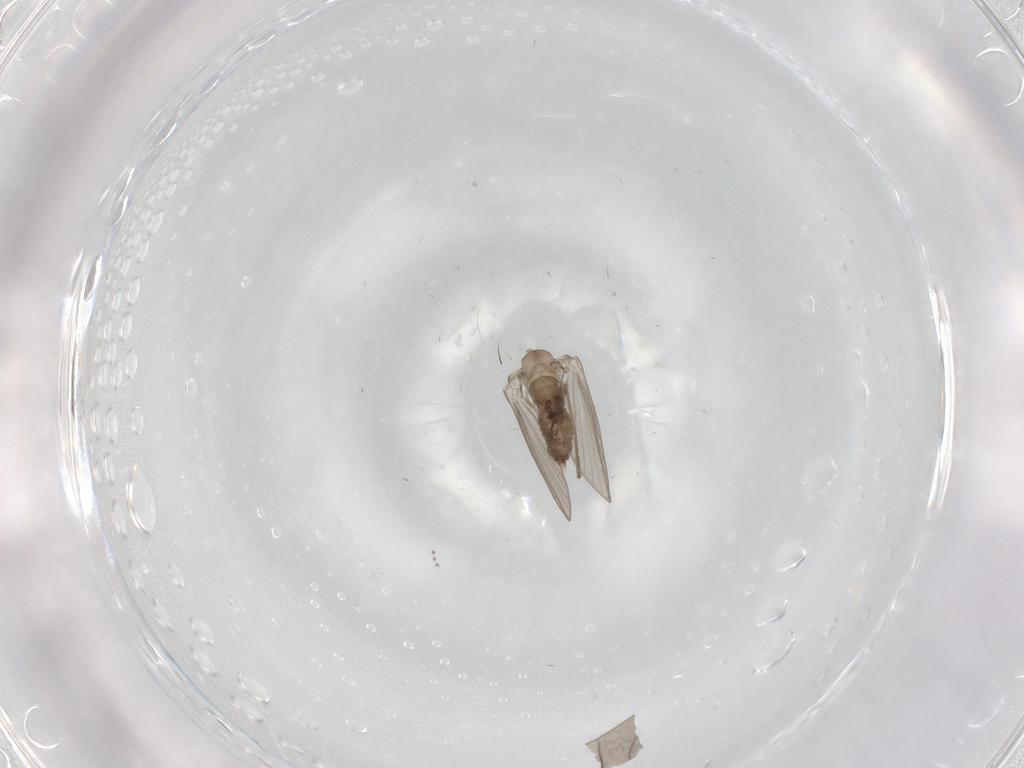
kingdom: Animalia
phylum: Arthropoda
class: Insecta
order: Diptera
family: Psychodidae
